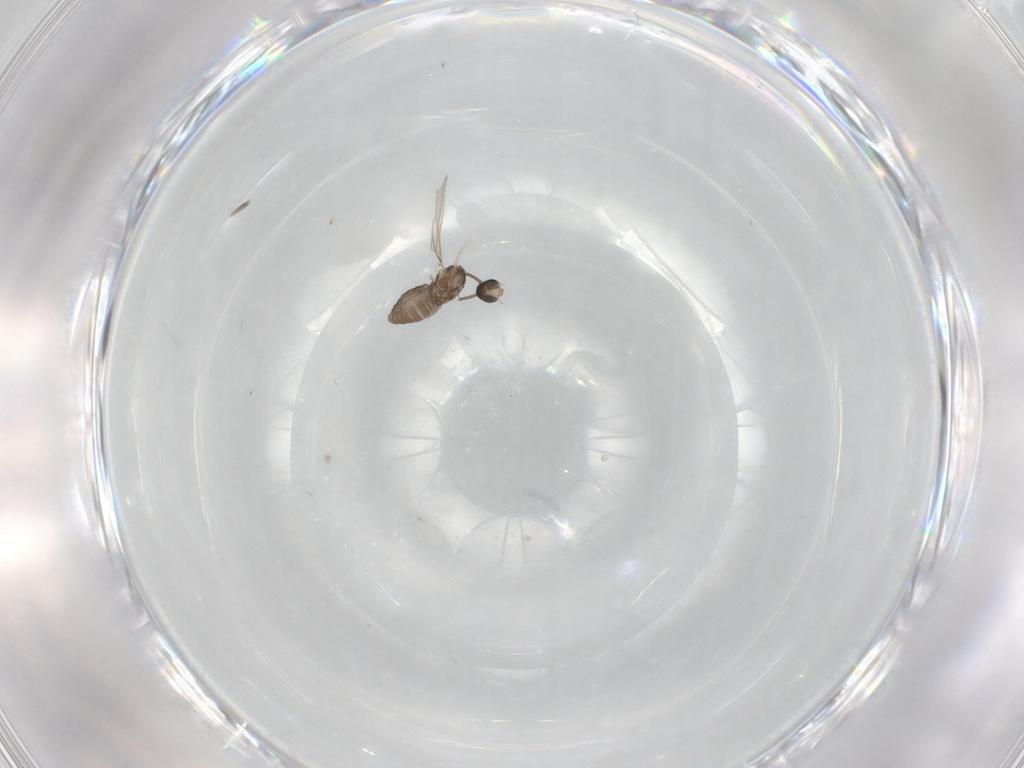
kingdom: Animalia
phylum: Arthropoda
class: Insecta
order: Diptera
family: Cecidomyiidae
